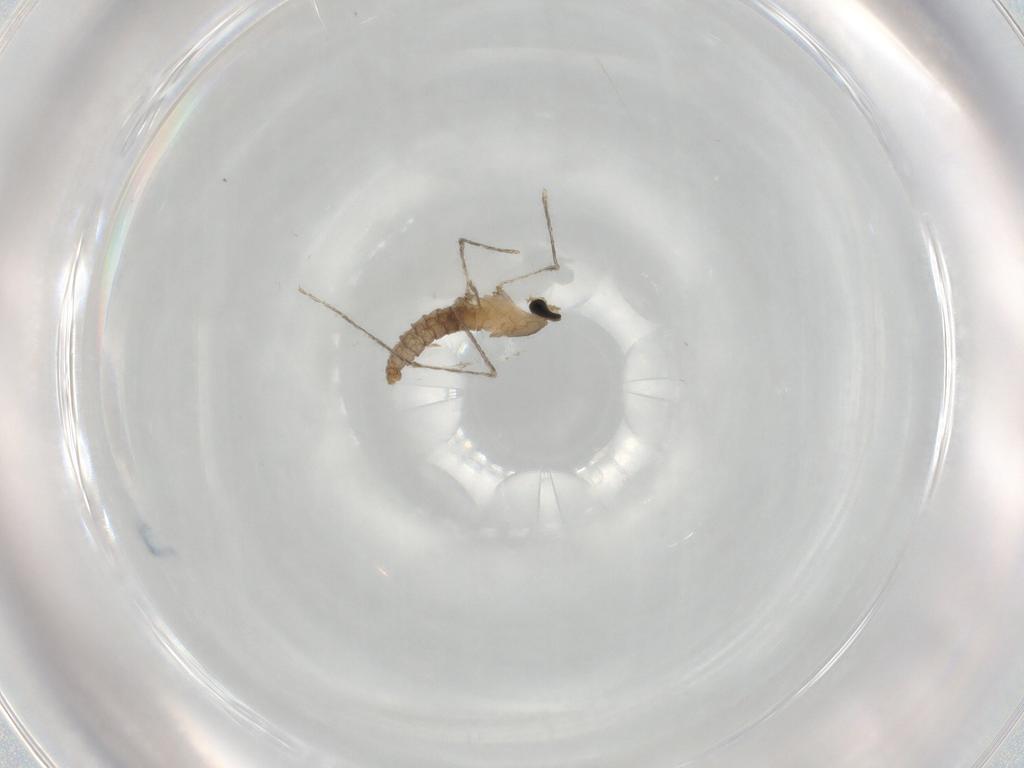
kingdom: Animalia
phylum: Arthropoda
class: Insecta
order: Diptera
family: Cecidomyiidae
